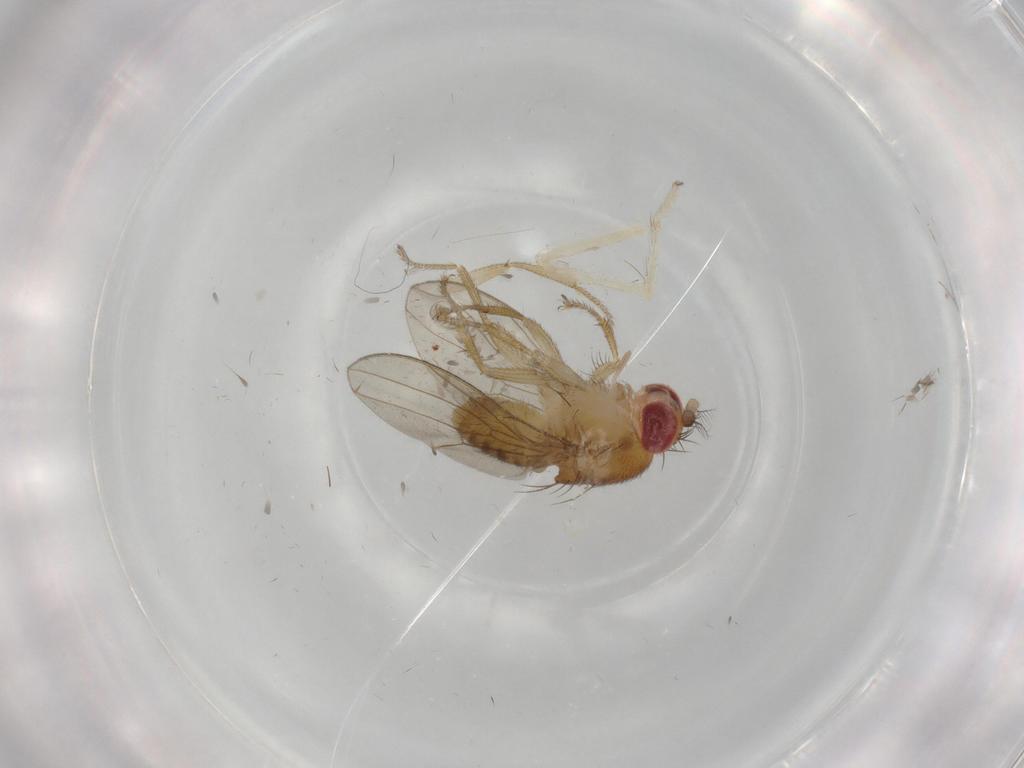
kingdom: Animalia
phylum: Arthropoda
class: Insecta
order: Diptera
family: Drosophilidae
